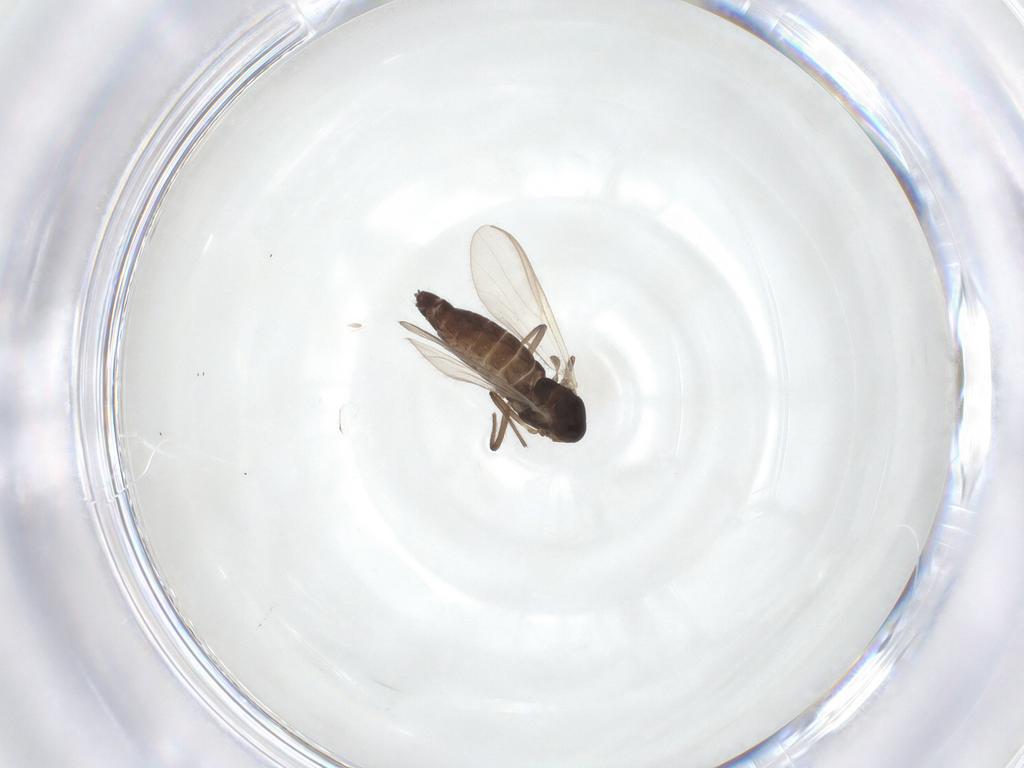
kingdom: Animalia
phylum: Arthropoda
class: Insecta
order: Diptera
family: Chironomidae
